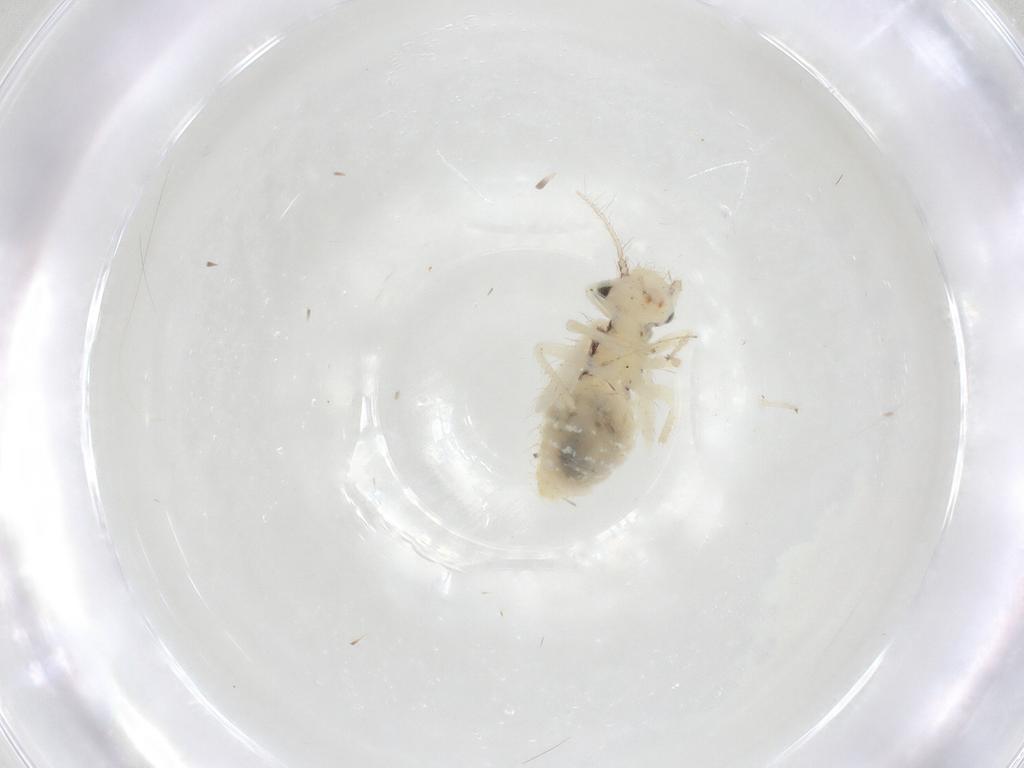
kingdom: Animalia
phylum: Arthropoda
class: Insecta
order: Psocodea
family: Philotarsidae
